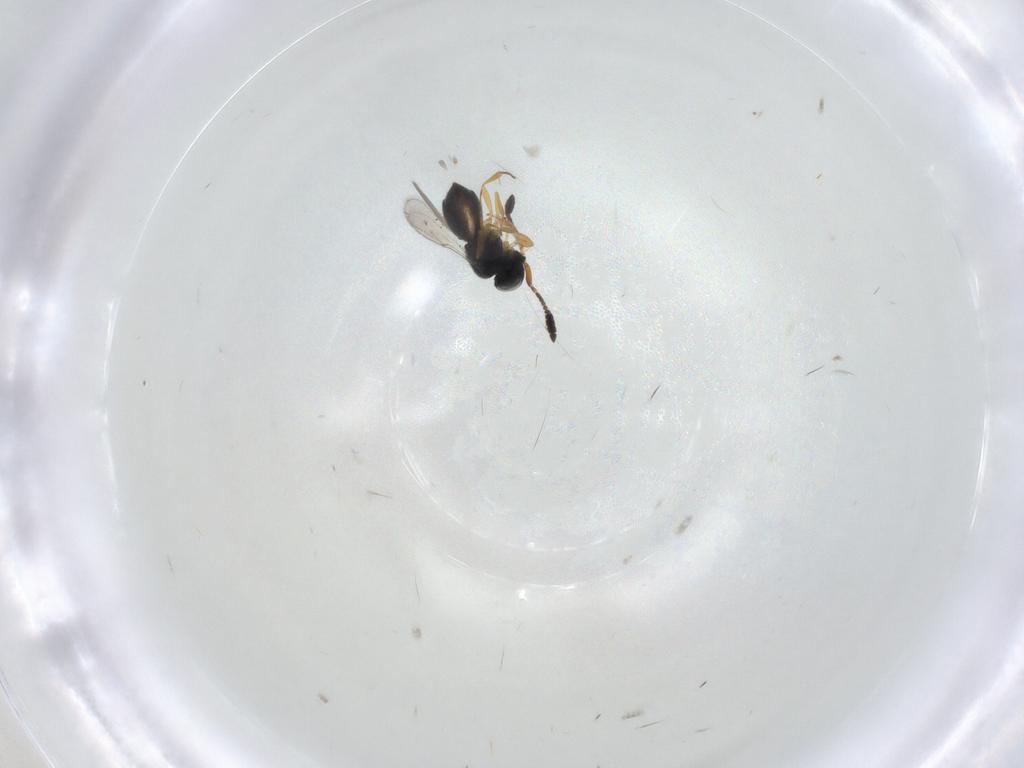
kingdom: Animalia
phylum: Arthropoda
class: Insecta
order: Hymenoptera
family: Scelionidae
